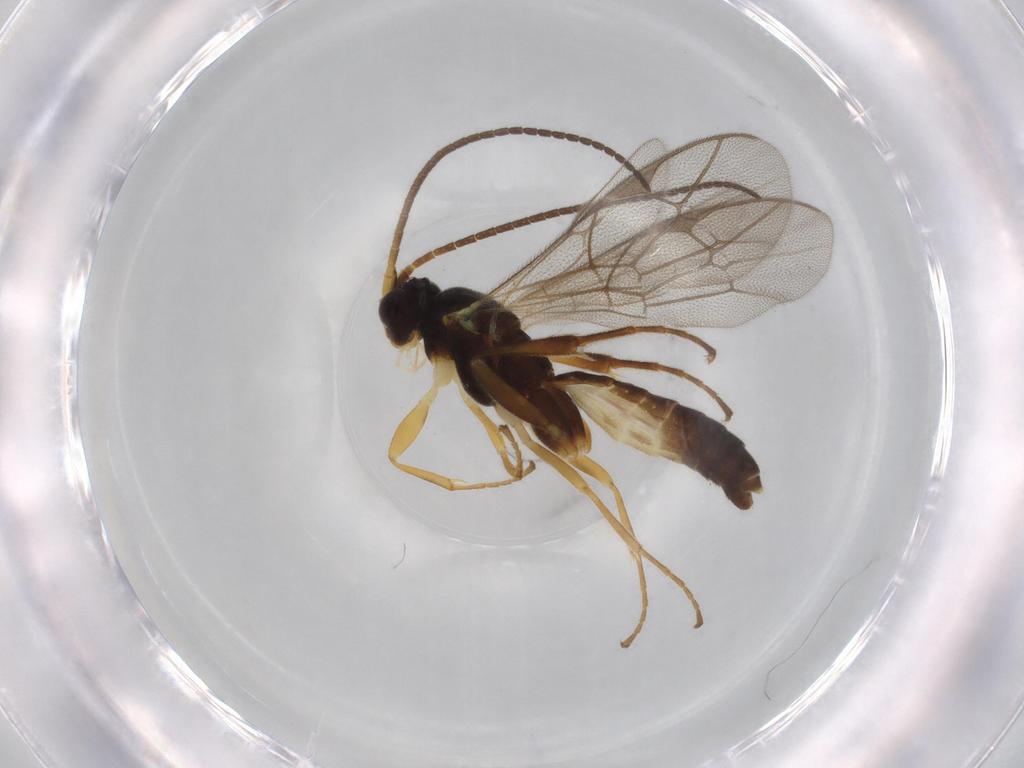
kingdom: Animalia
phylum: Arthropoda
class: Insecta
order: Hymenoptera
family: Ichneumonidae
